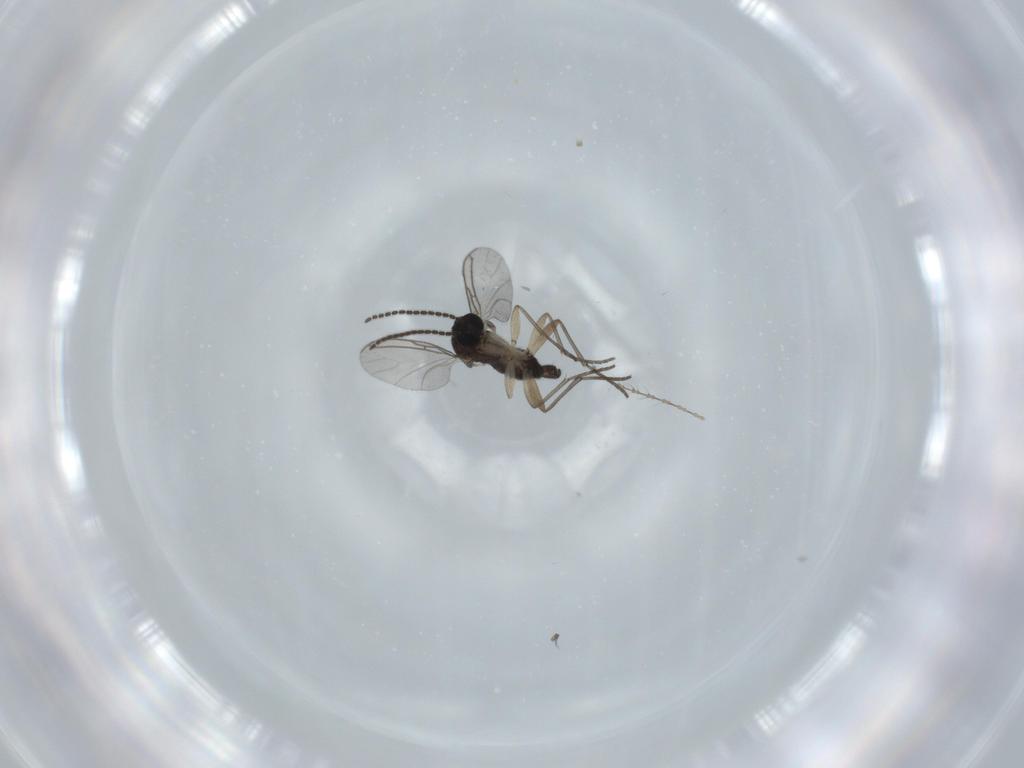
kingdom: Animalia
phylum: Arthropoda
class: Insecta
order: Diptera
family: Sciaridae
